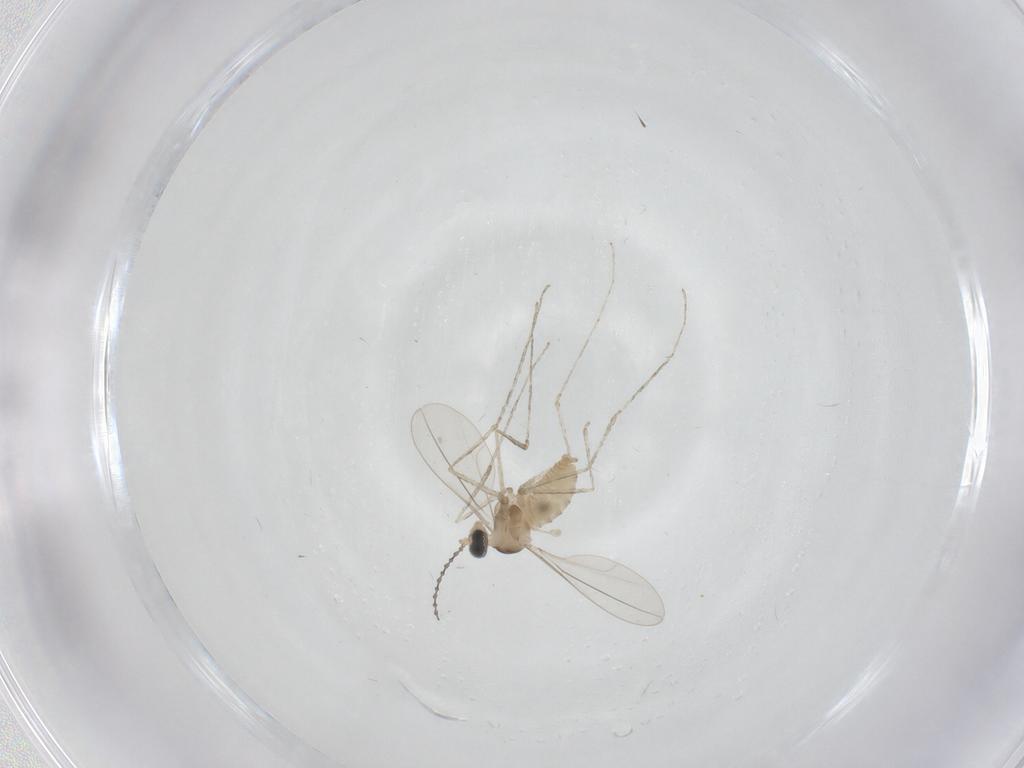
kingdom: Animalia
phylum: Arthropoda
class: Insecta
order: Diptera
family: Cecidomyiidae
